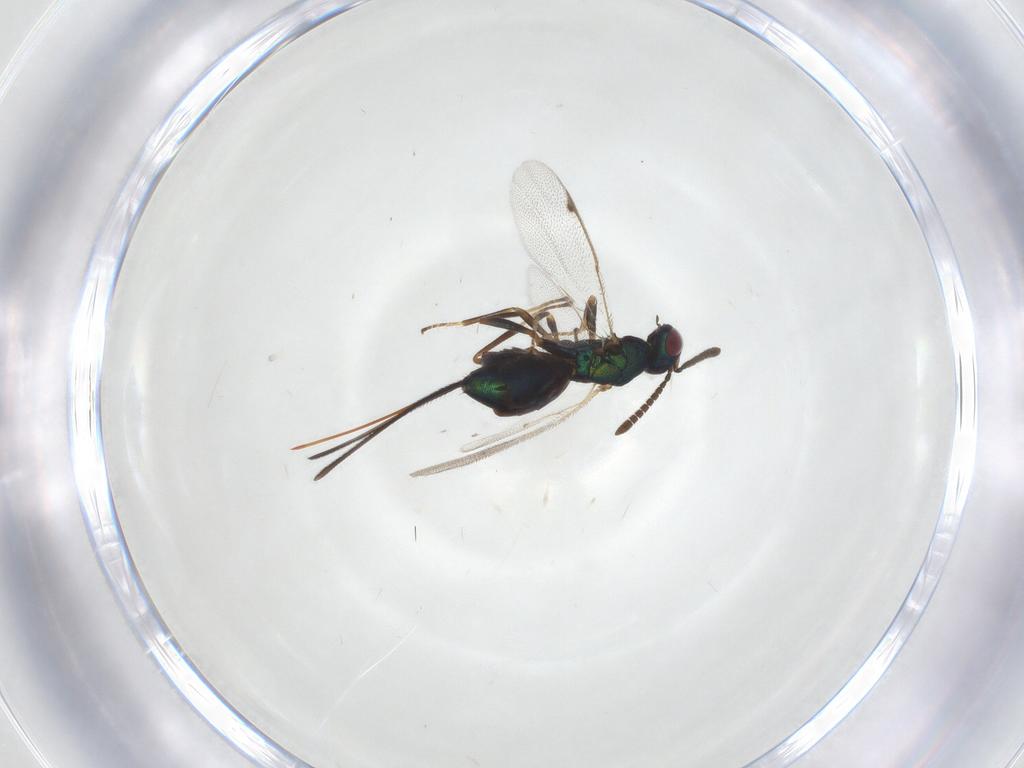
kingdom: Animalia
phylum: Arthropoda
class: Insecta
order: Hymenoptera
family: Torymidae
